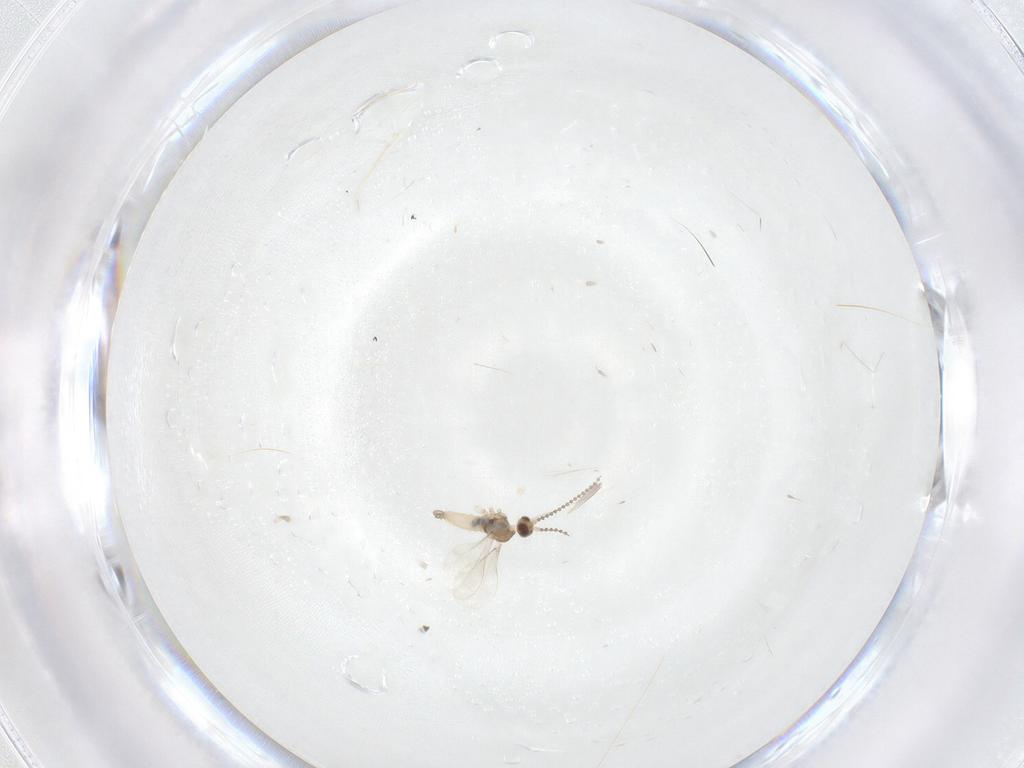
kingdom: Animalia
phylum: Arthropoda
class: Insecta
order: Diptera
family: Cecidomyiidae
